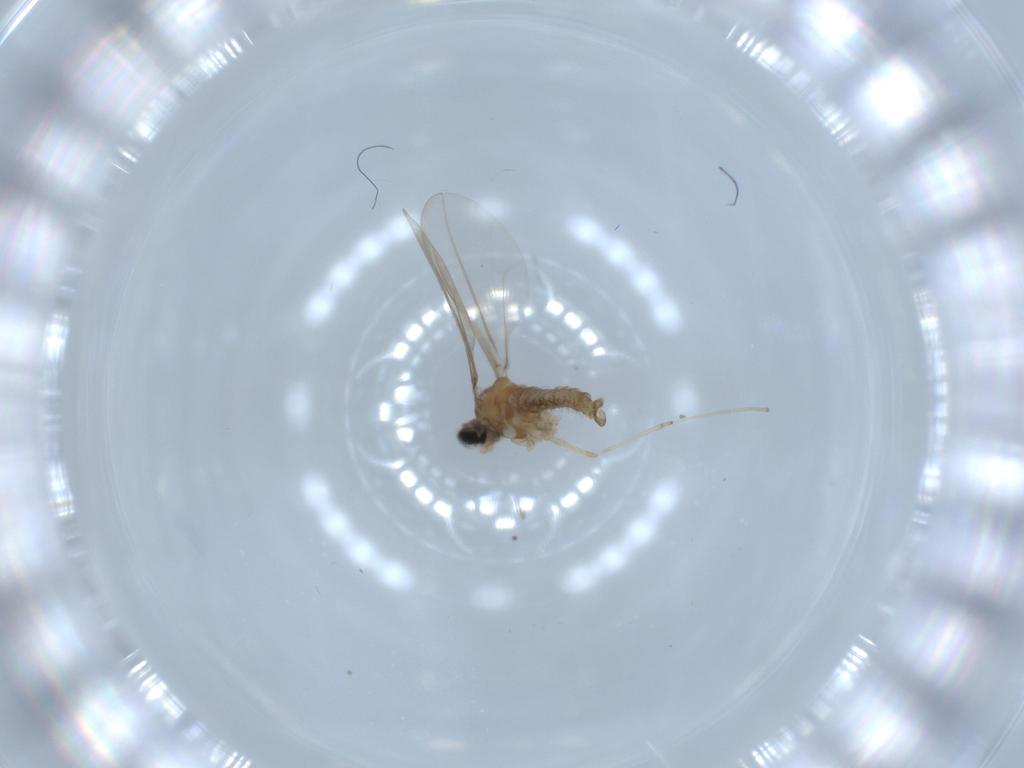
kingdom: Animalia
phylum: Arthropoda
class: Insecta
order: Diptera
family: Cecidomyiidae
